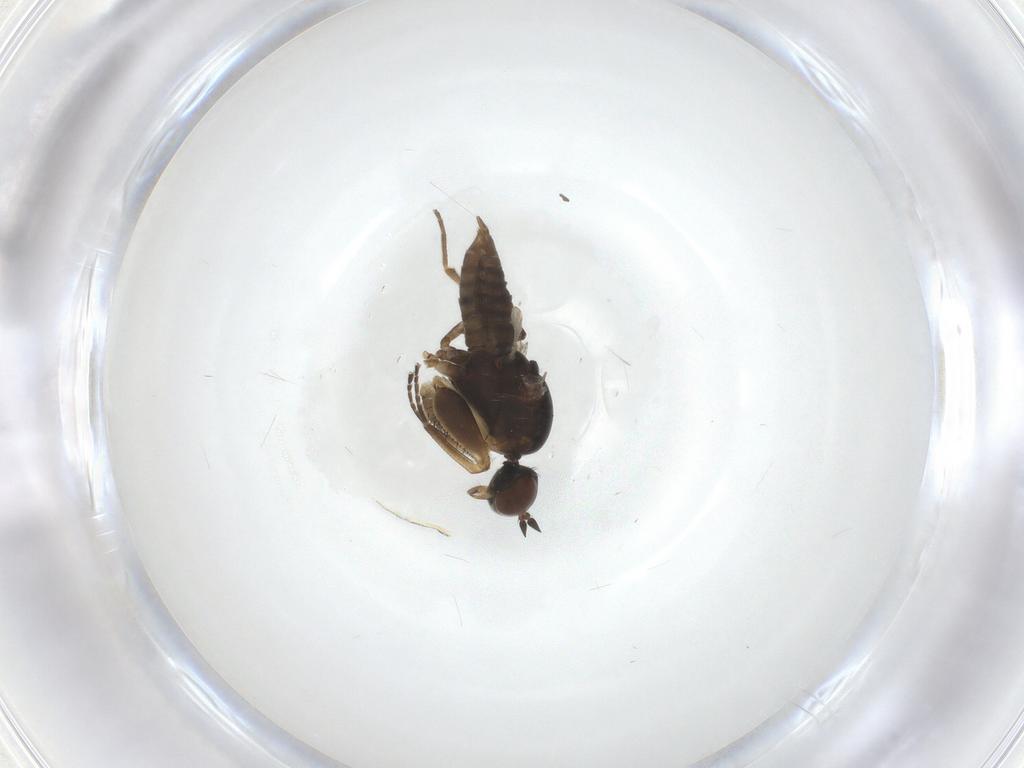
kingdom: Animalia
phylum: Arthropoda
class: Insecta
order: Diptera
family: Empididae
